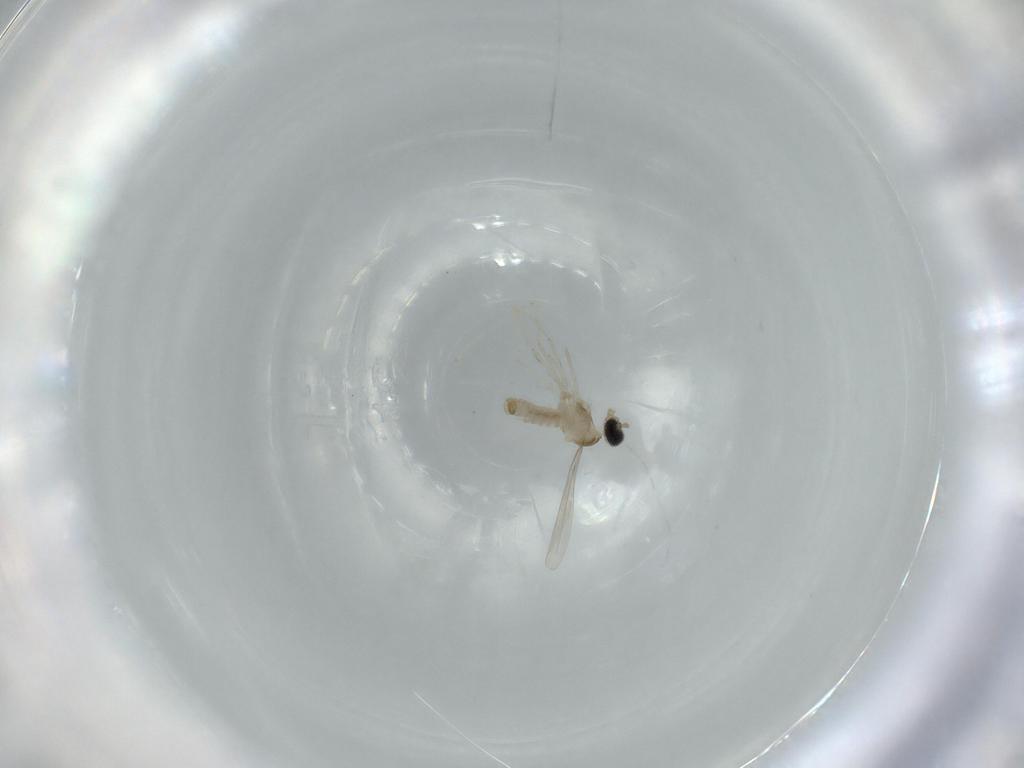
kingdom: Animalia
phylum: Arthropoda
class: Insecta
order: Diptera
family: Cecidomyiidae
